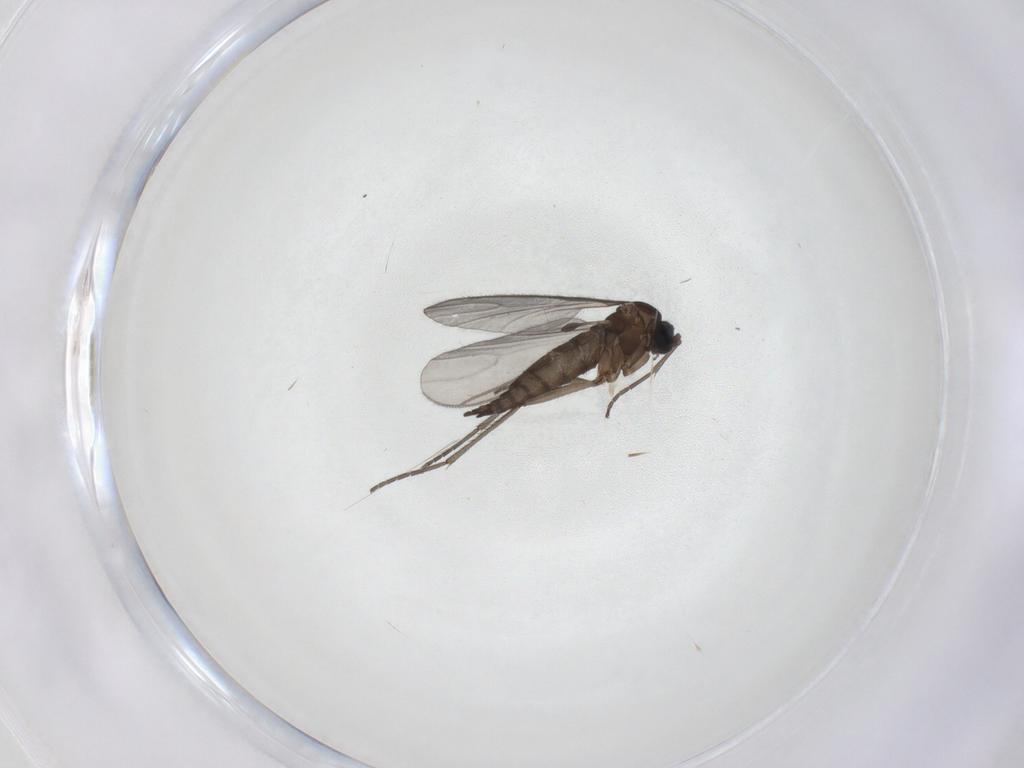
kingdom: Animalia
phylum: Arthropoda
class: Insecta
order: Diptera
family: Sciaridae
